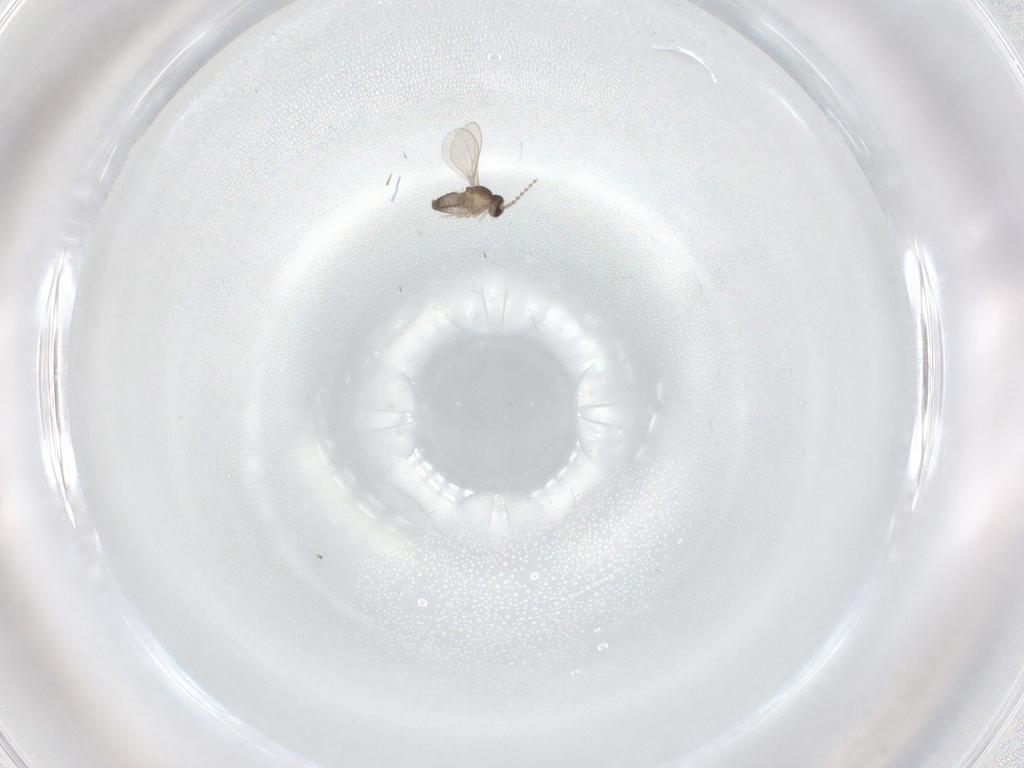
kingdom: Animalia
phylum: Arthropoda
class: Insecta
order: Diptera
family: Cecidomyiidae
